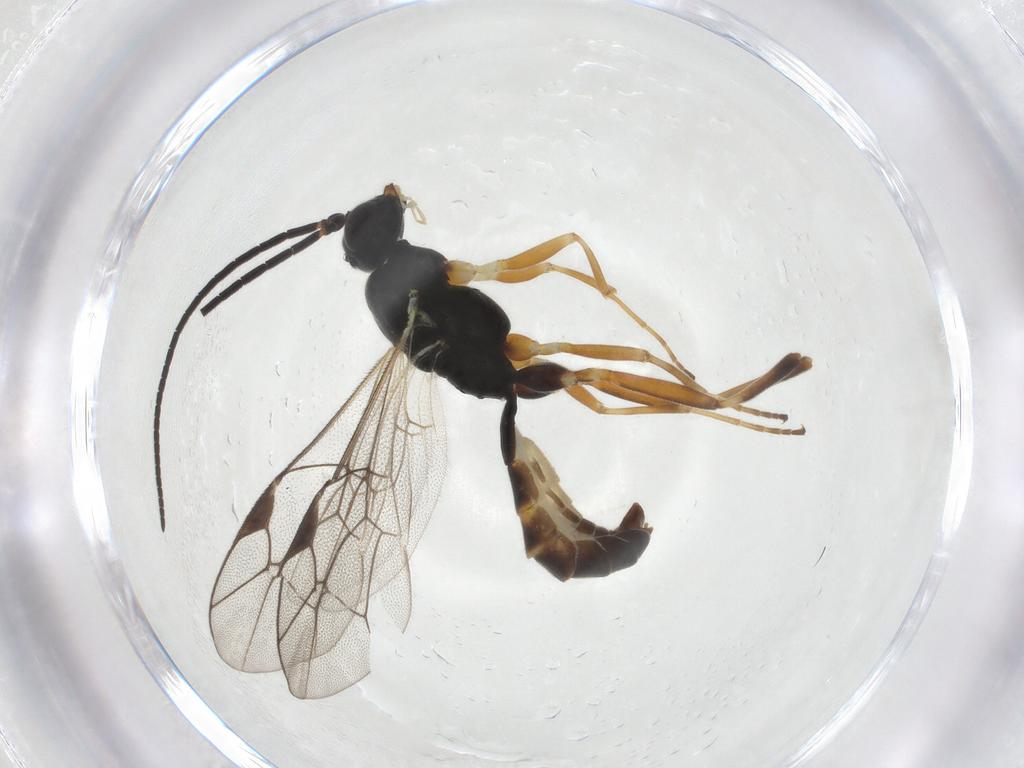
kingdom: Animalia
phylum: Arthropoda
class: Insecta
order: Hymenoptera
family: Ichneumonidae
